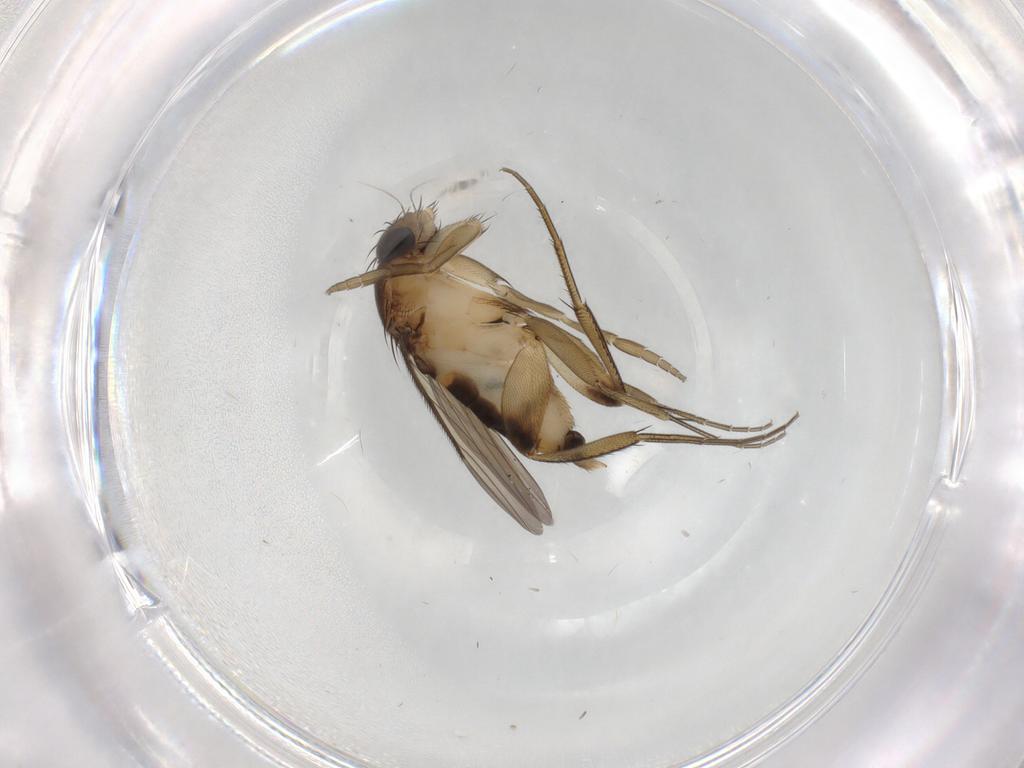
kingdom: Animalia
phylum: Arthropoda
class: Insecta
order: Diptera
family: Phoridae
